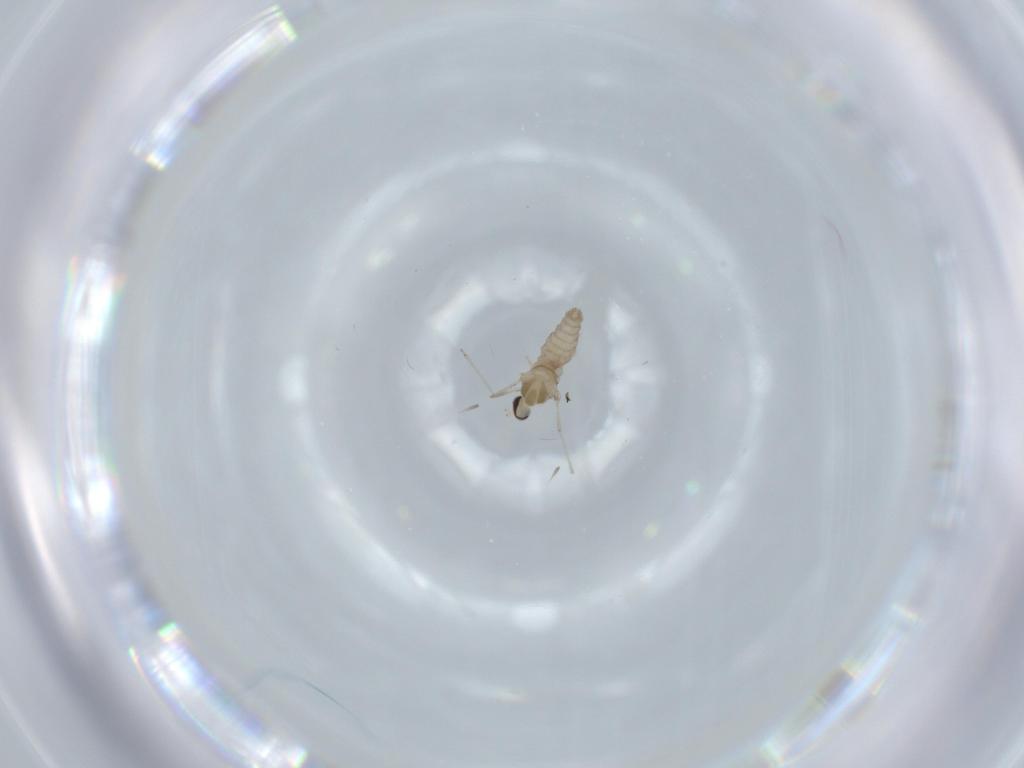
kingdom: Animalia
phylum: Arthropoda
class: Insecta
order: Diptera
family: Cecidomyiidae
